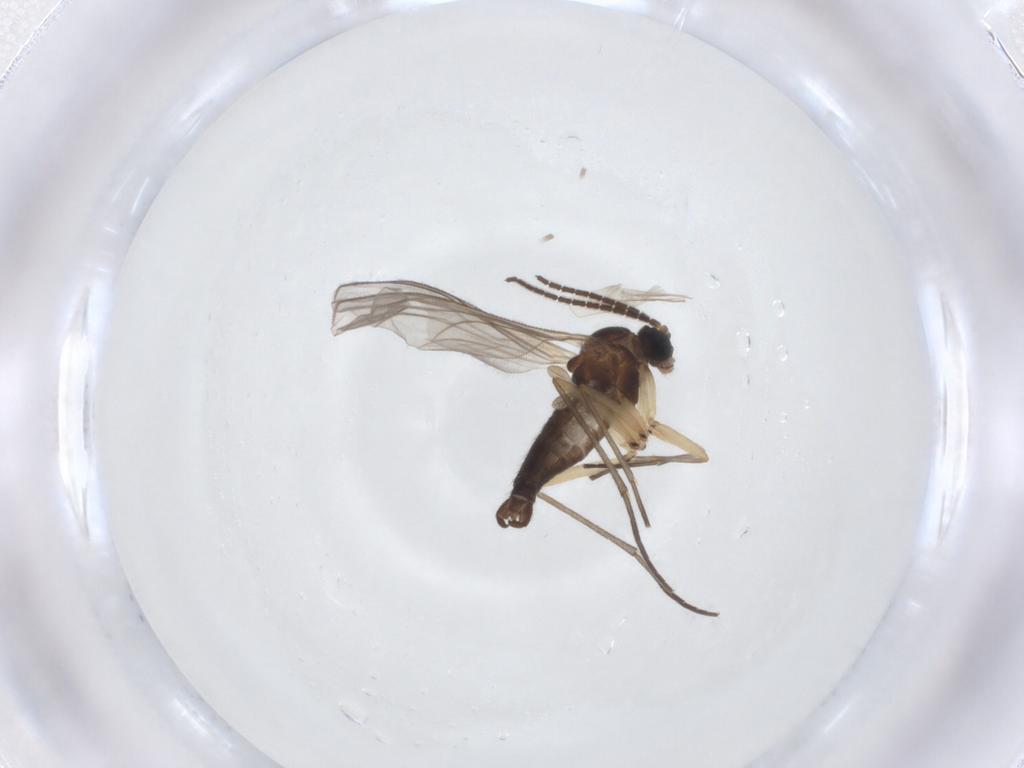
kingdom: Animalia
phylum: Arthropoda
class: Insecta
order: Diptera
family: Sciaridae
